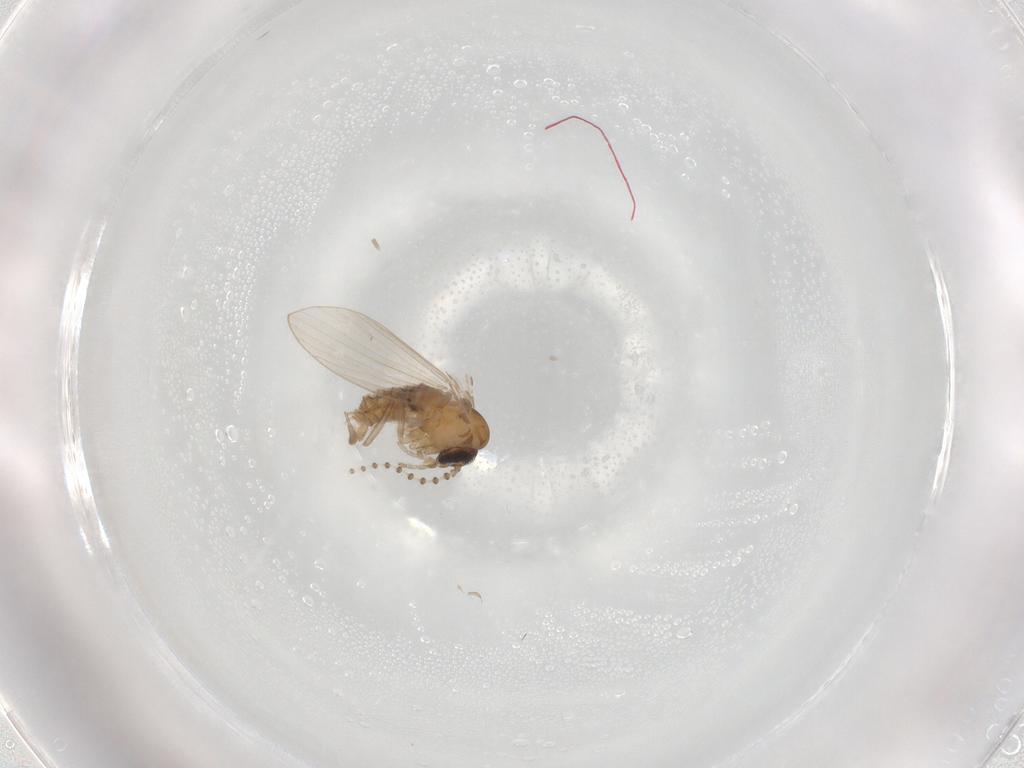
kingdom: Animalia
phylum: Arthropoda
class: Insecta
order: Diptera
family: Psychodidae
